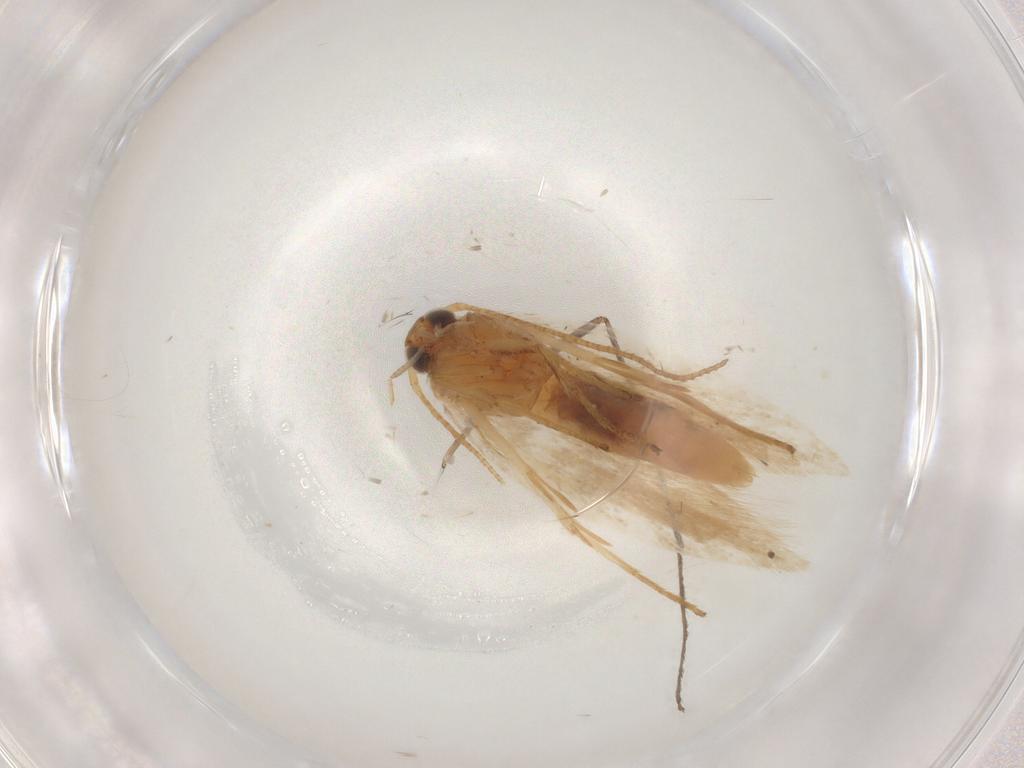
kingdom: Animalia
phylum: Arthropoda
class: Insecta
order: Lepidoptera
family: Gelechiidae
